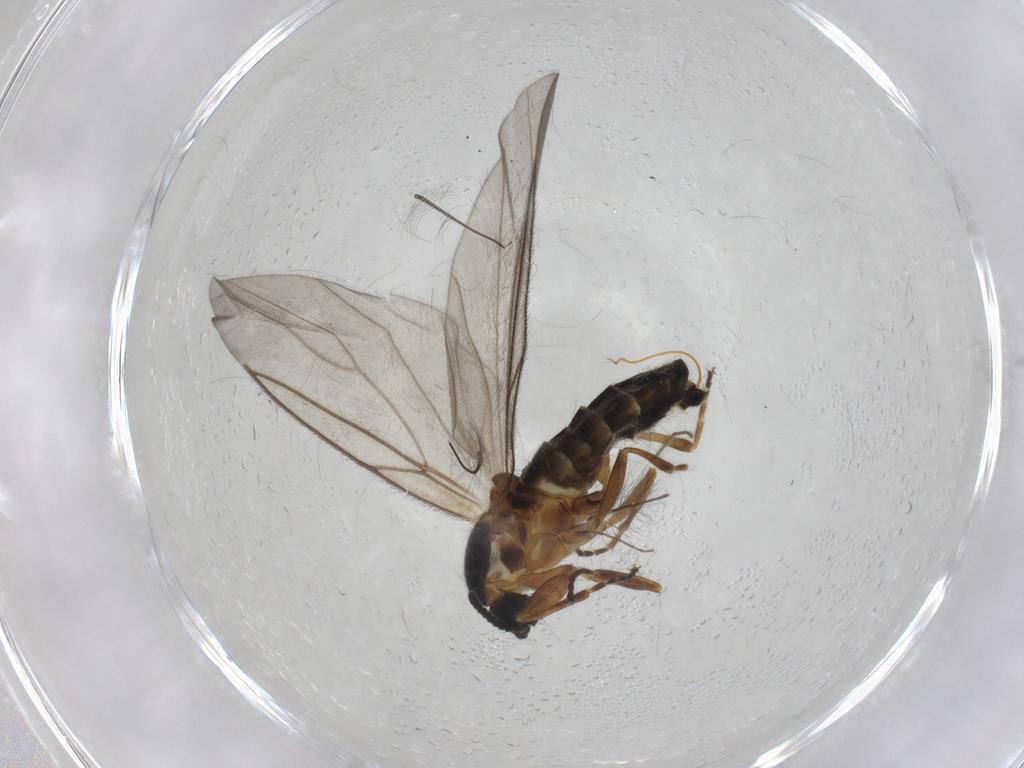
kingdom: Animalia
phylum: Arthropoda
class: Insecta
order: Diptera
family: Scatopsidae
